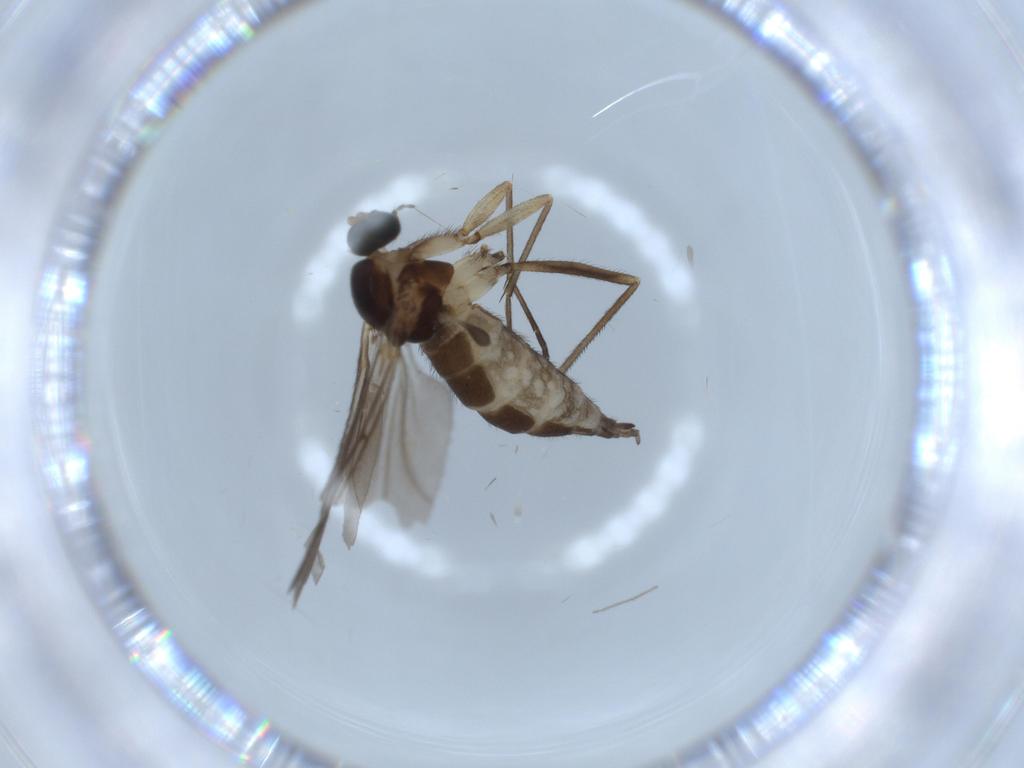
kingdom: Animalia
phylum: Arthropoda
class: Insecta
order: Diptera
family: Sciaridae
